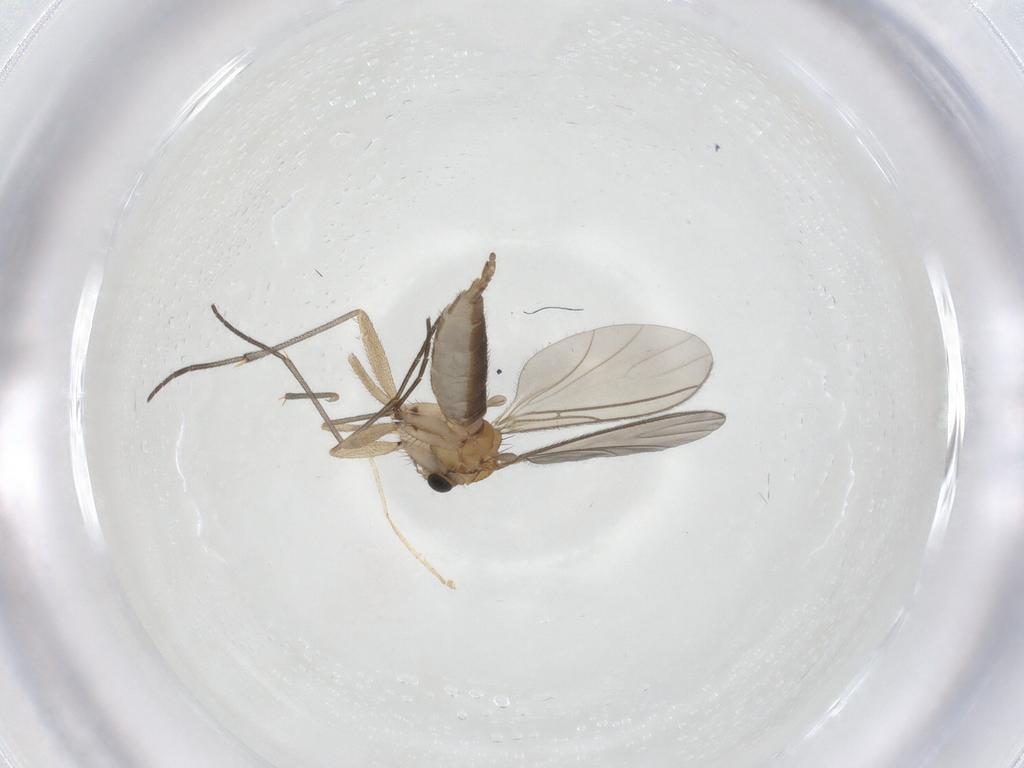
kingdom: Animalia
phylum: Arthropoda
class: Insecta
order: Diptera
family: Sciaridae
